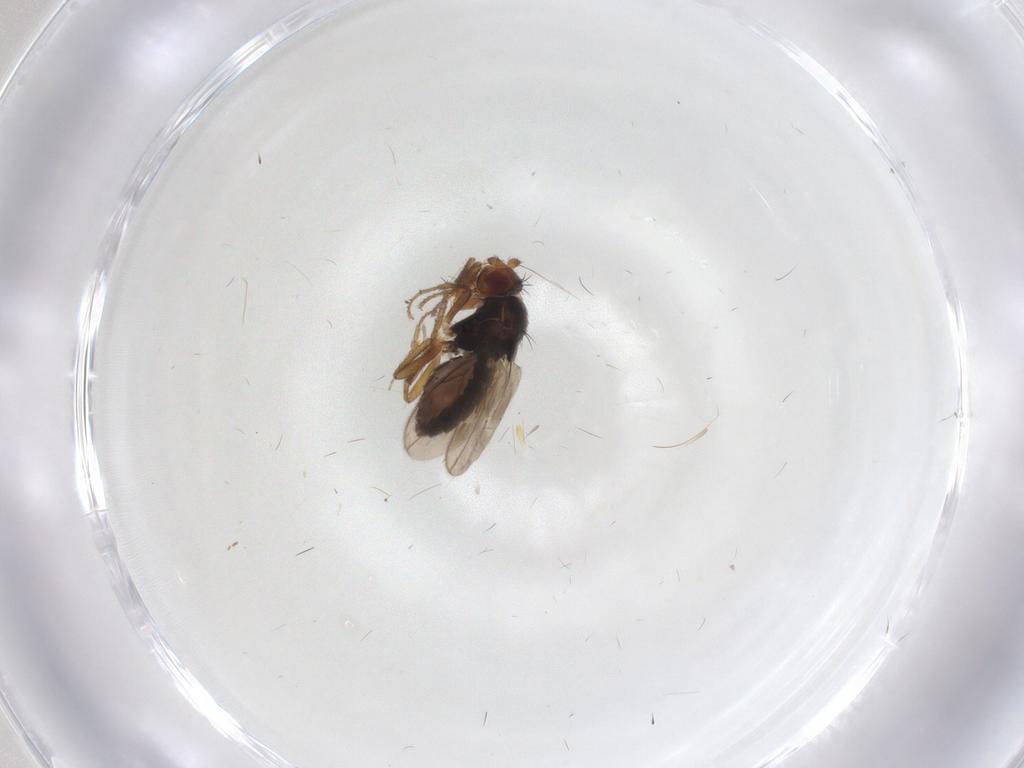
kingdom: Animalia
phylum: Arthropoda
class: Insecta
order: Diptera
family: Sphaeroceridae
